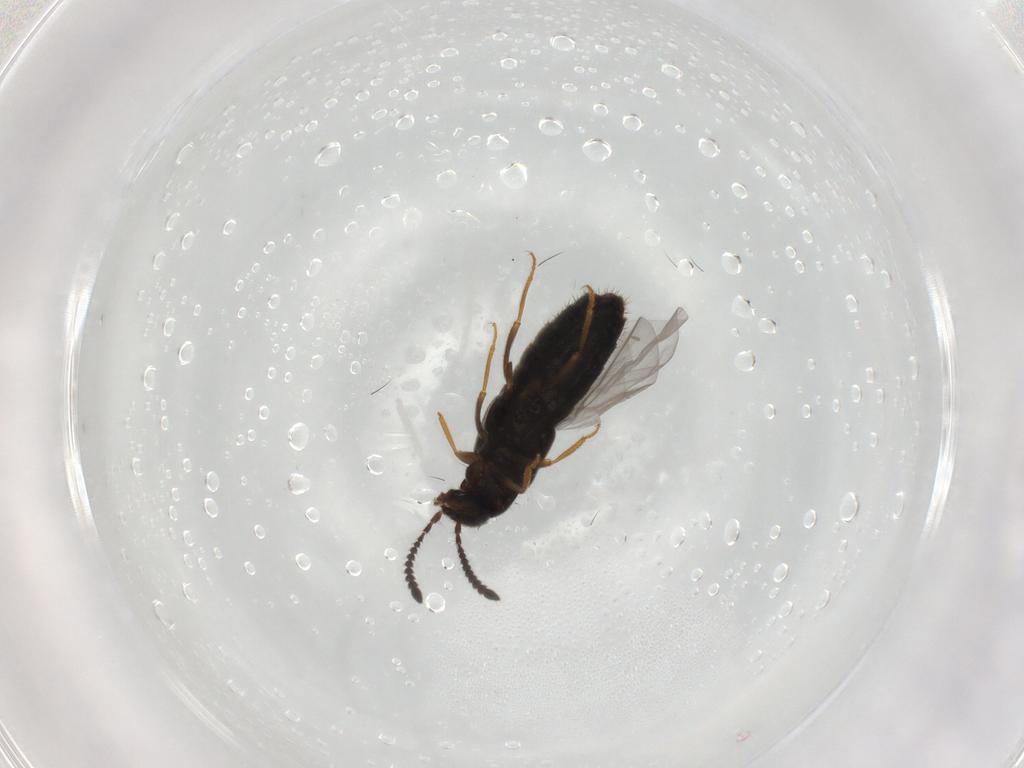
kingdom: Animalia
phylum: Arthropoda
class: Insecta
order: Coleoptera
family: Staphylinidae
